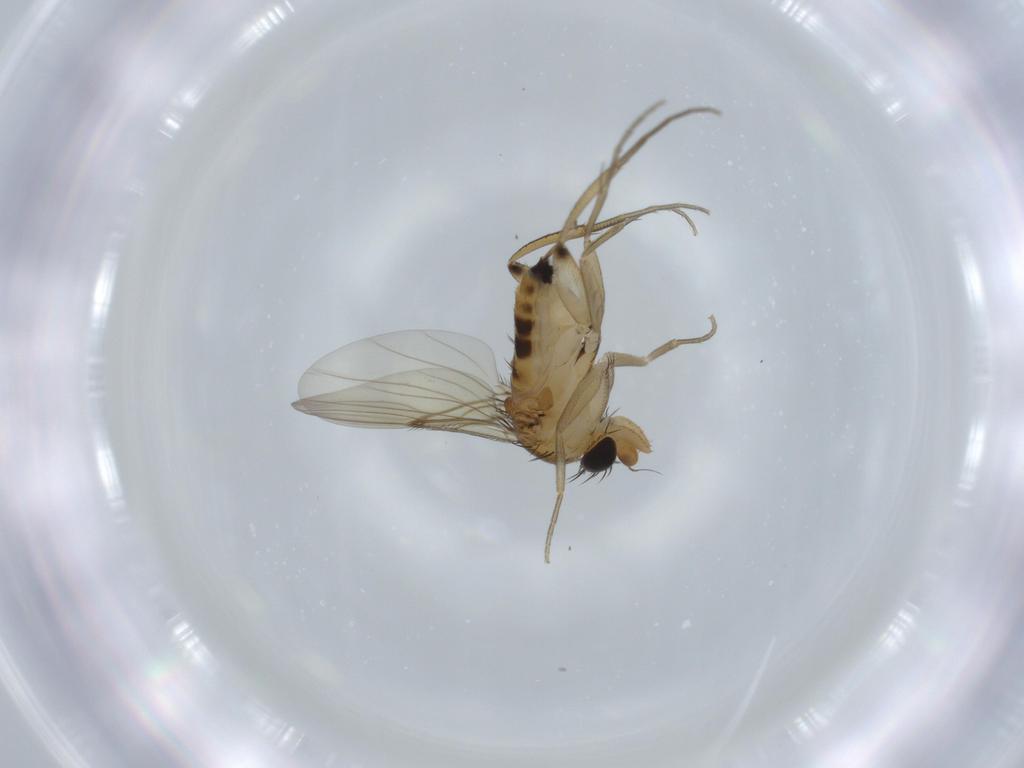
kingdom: Animalia
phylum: Arthropoda
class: Insecta
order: Diptera
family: Phoridae
